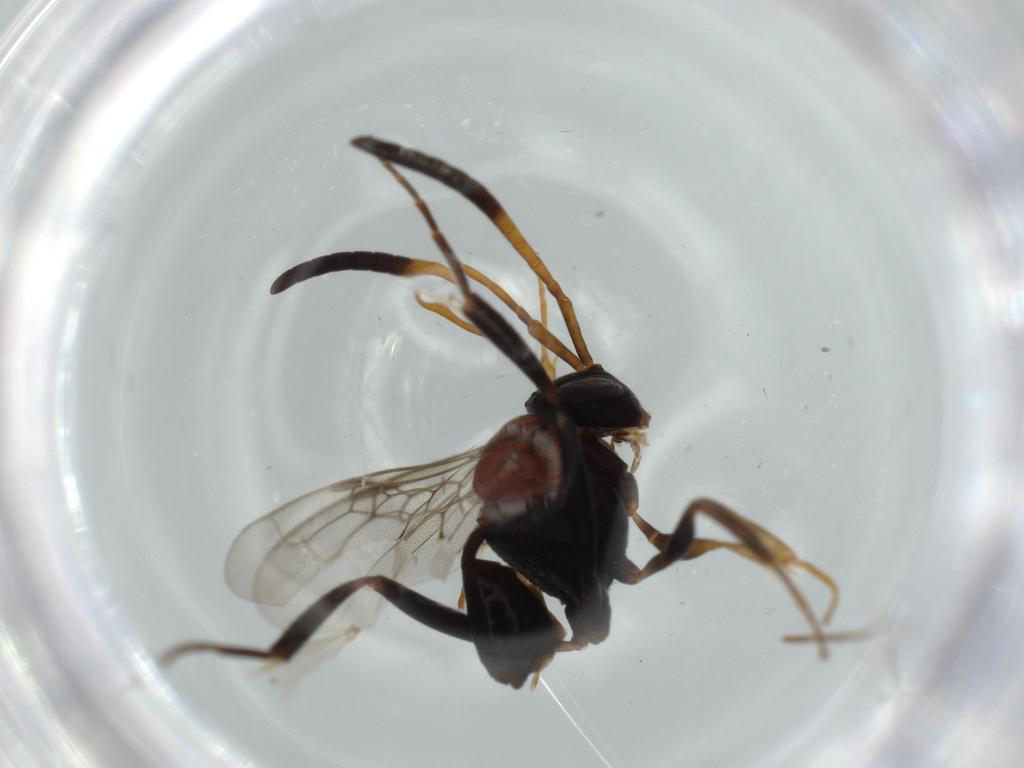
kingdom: Animalia
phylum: Arthropoda
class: Insecta
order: Hymenoptera
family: Evaniidae
